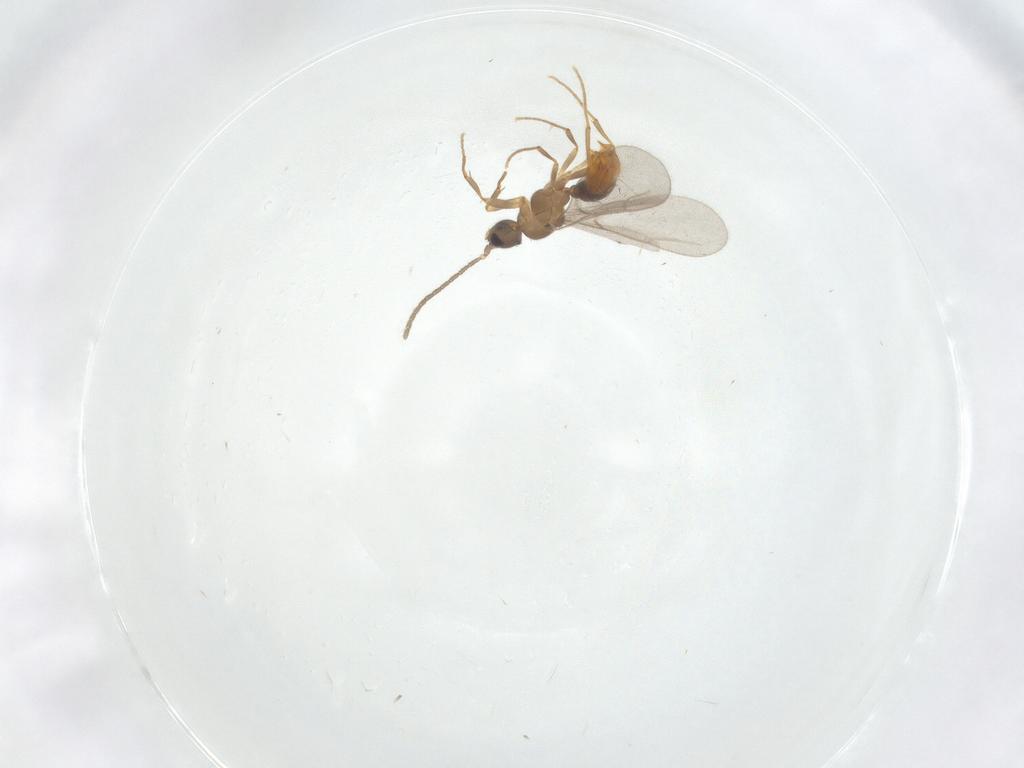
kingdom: Animalia
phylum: Arthropoda
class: Insecta
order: Hymenoptera
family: Formicidae
